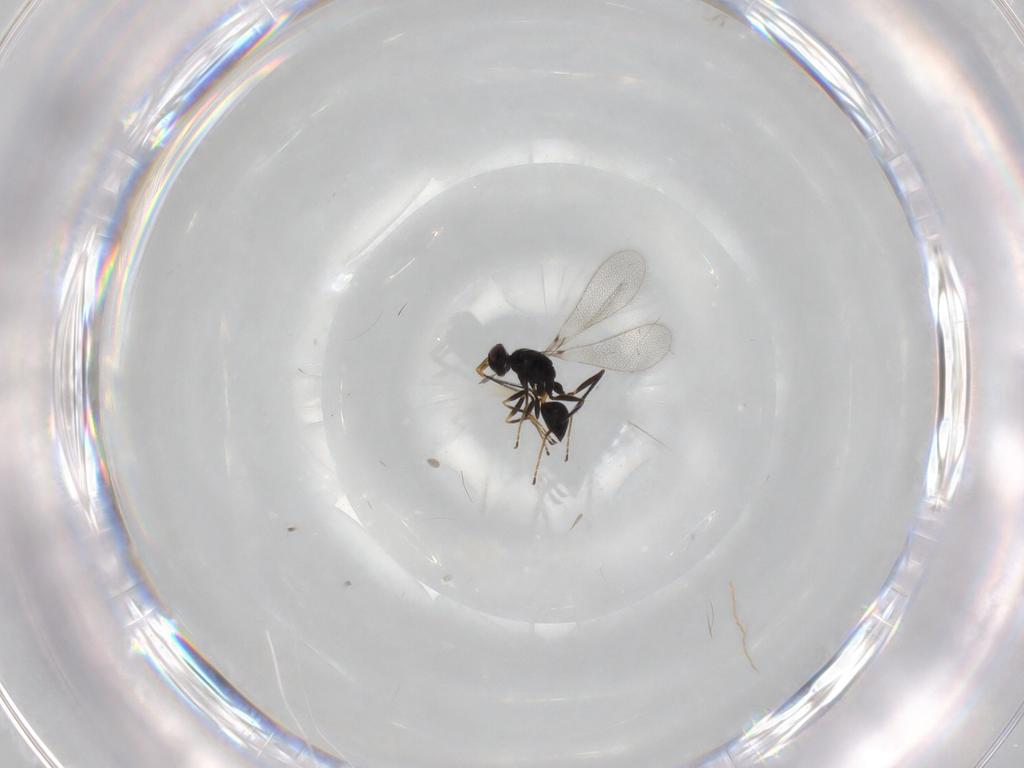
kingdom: Animalia
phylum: Arthropoda
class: Insecta
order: Hymenoptera
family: Mymaridae
